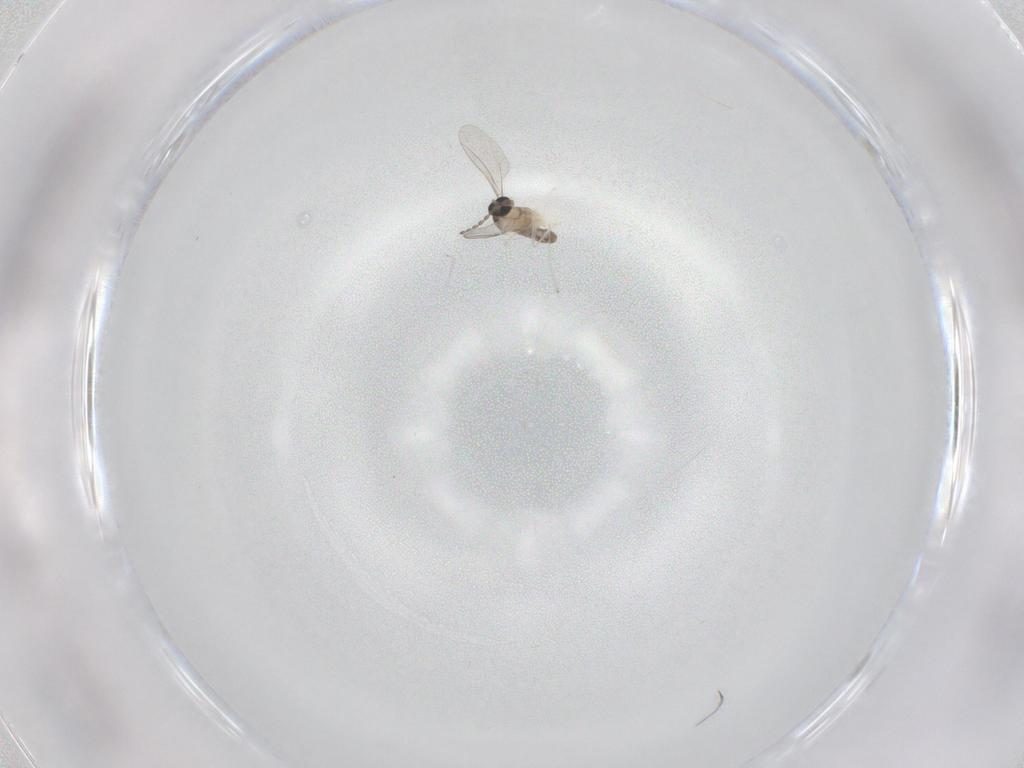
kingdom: Animalia
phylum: Arthropoda
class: Insecta
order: Diptera
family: Cecidomyiidae
